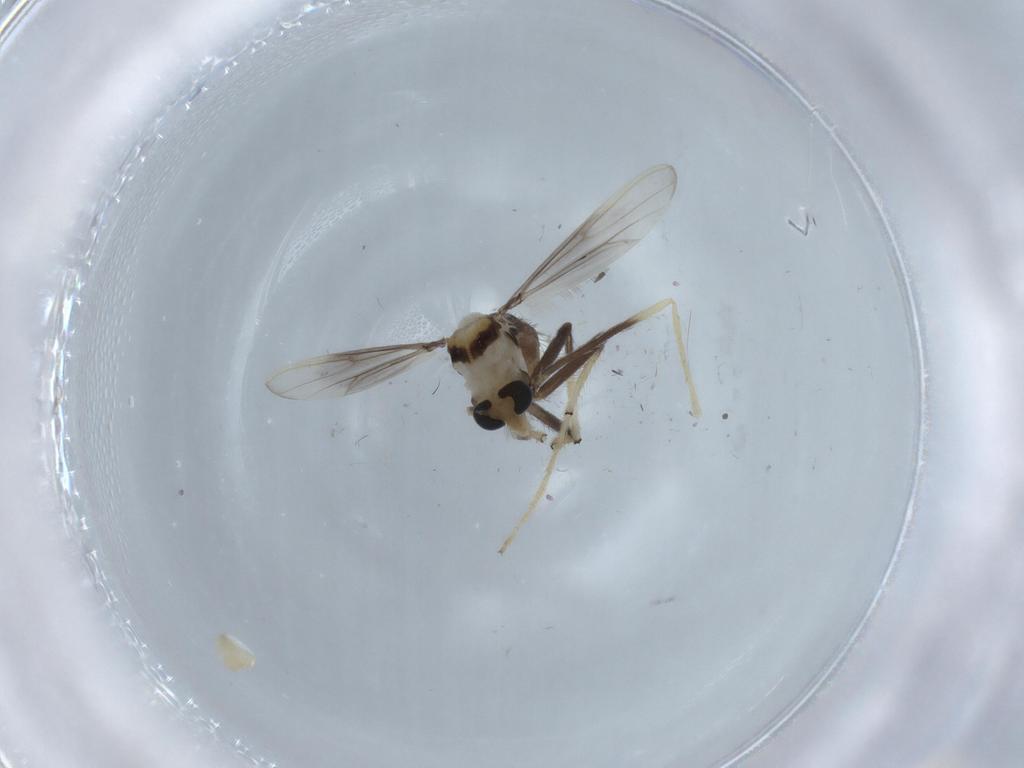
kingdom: Animalia
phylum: Arthropoda
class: Insecta
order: Diptera
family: Chironomidae
